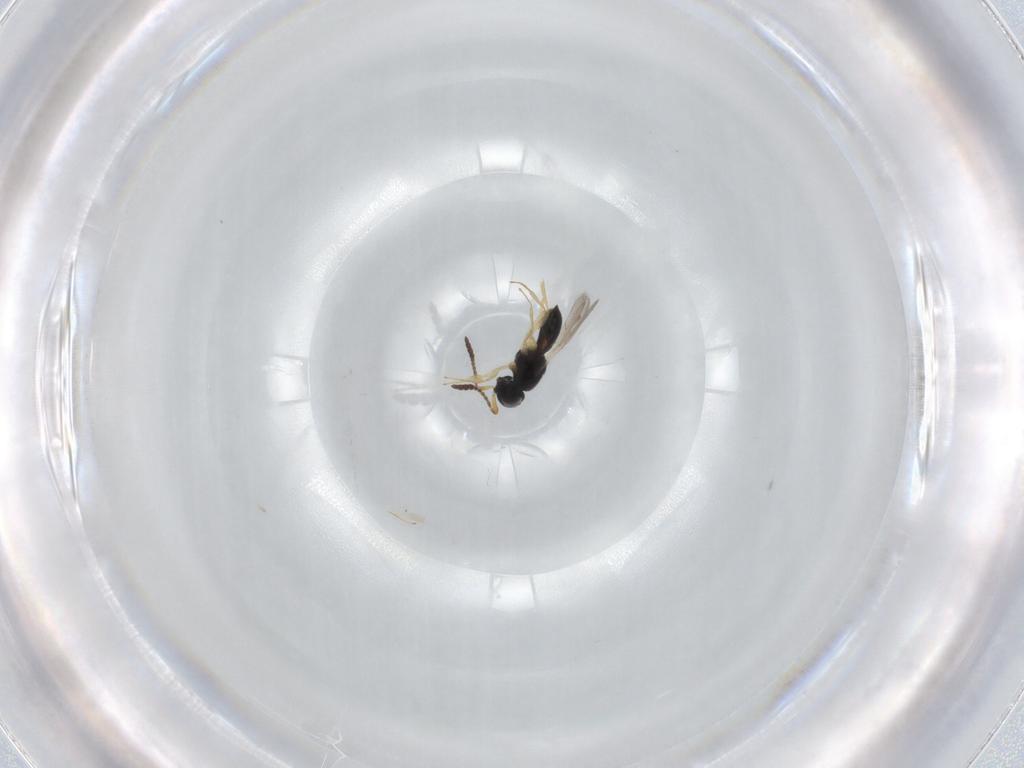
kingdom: Animalia
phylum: Arthropoda
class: Insecta
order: Hymenoptera
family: Scelionidae
